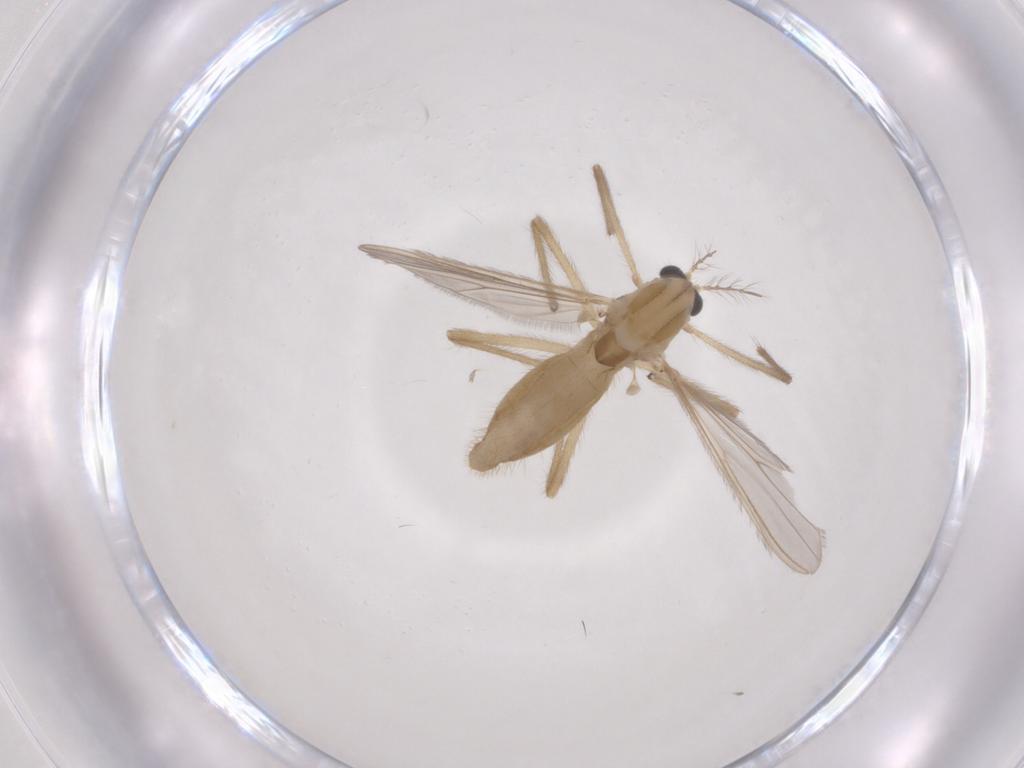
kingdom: Animalia
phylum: Arthropoda
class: Insecta
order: Diptera
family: Chironomidae
